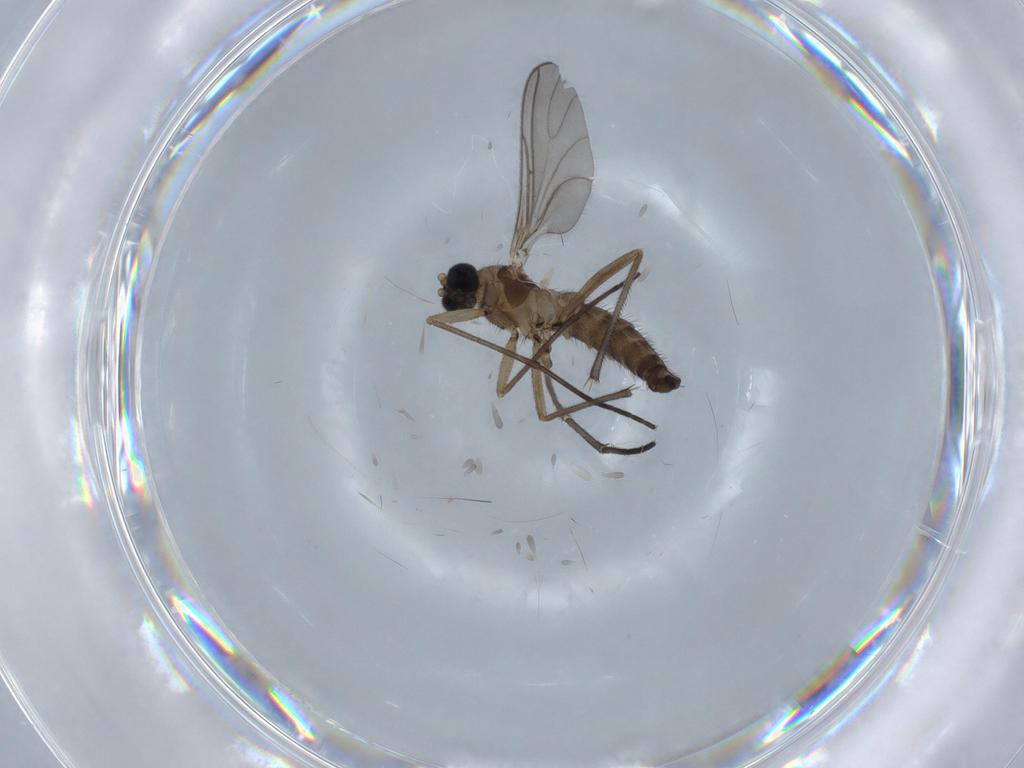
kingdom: Animalia
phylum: Arthropoda
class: Insecta
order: Diptera
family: Sciaridae
